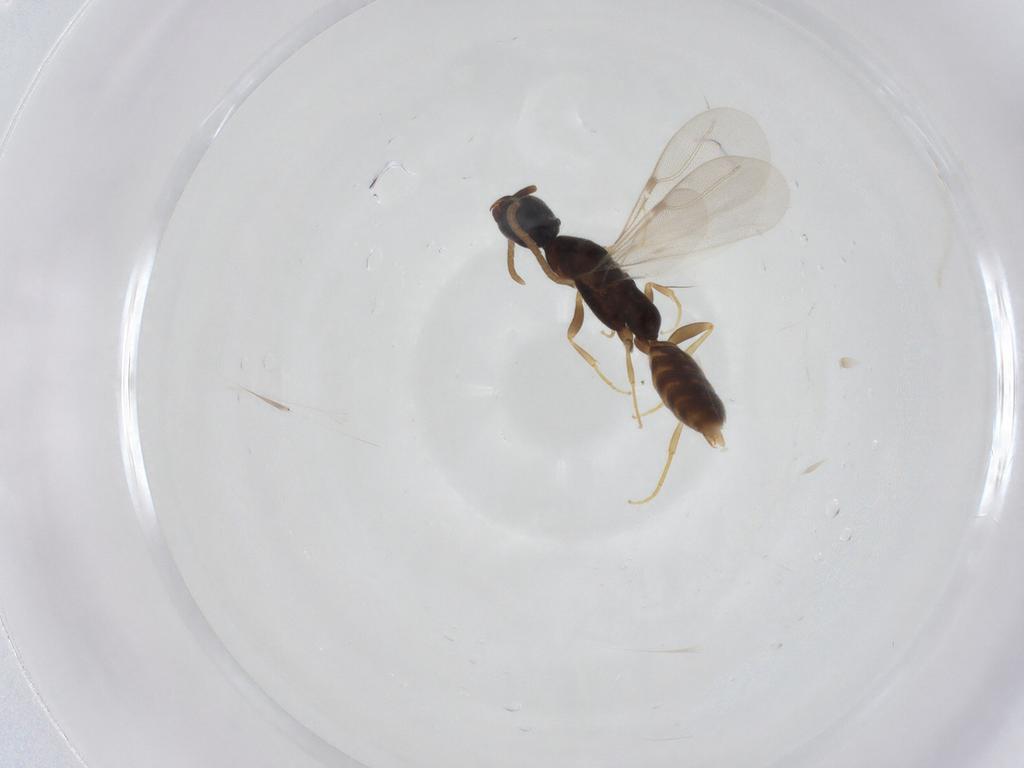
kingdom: Animalia
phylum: Arthropoda
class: Insecta
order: Hymenoptera
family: Bethylidae
